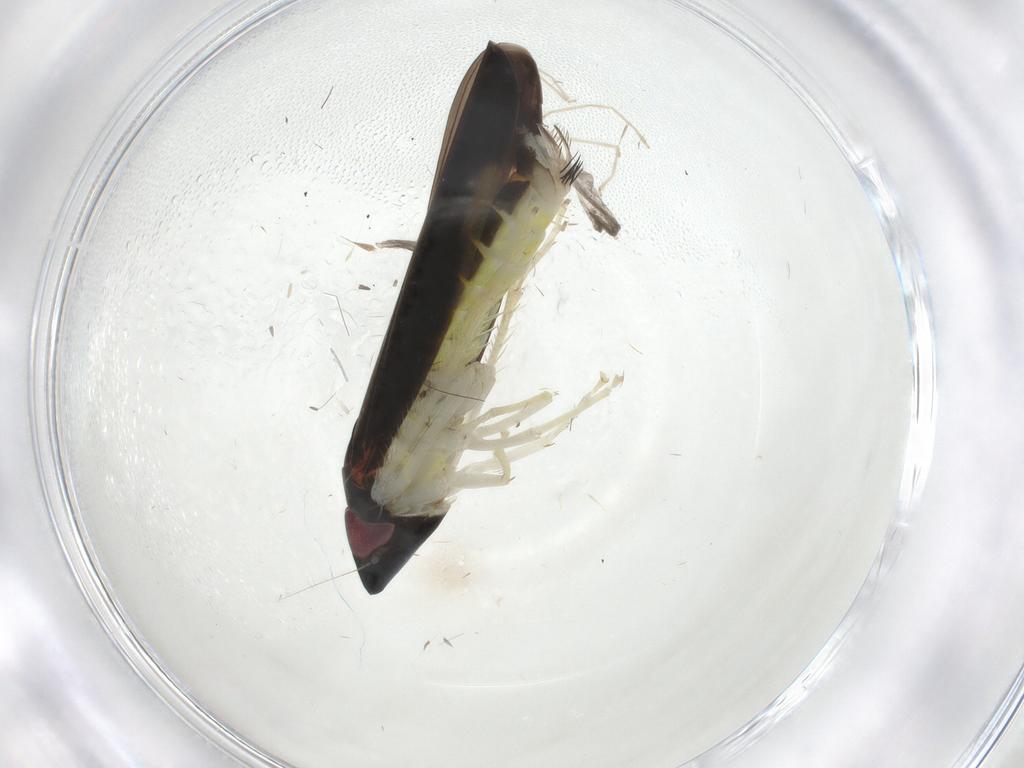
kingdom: Animalia
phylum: Arthropoda
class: Insecta
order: Hemiptera
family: Cicadellidae
